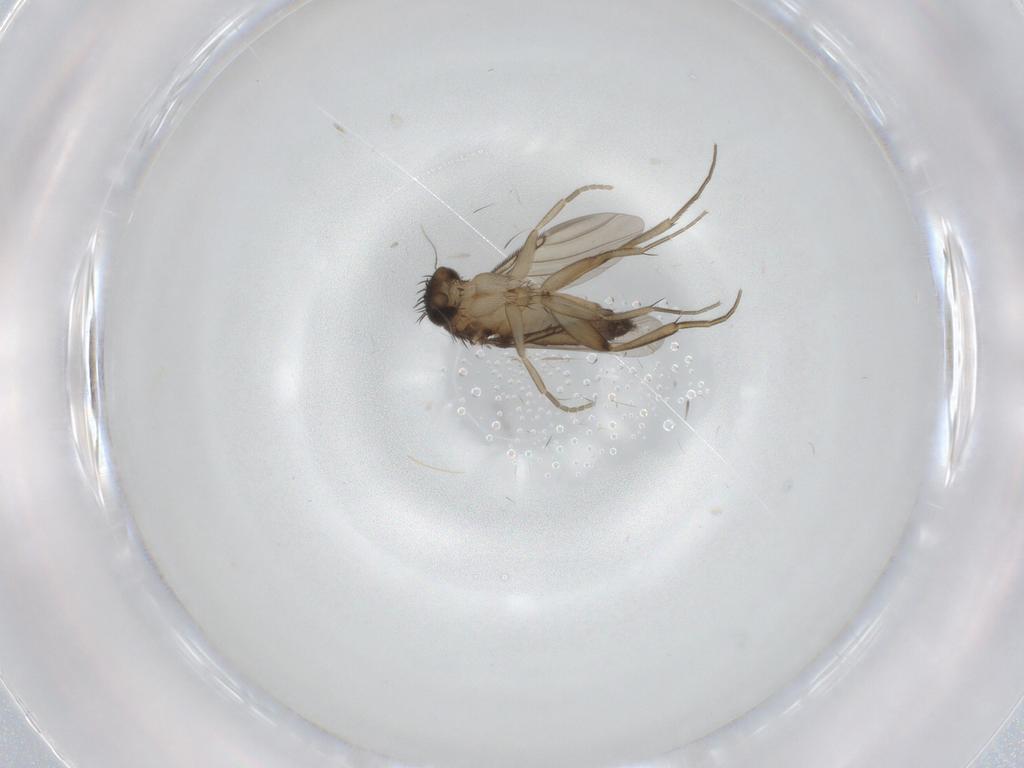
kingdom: Animalia
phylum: Arthropoda
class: Insecta
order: Diptera
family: Phoridae
